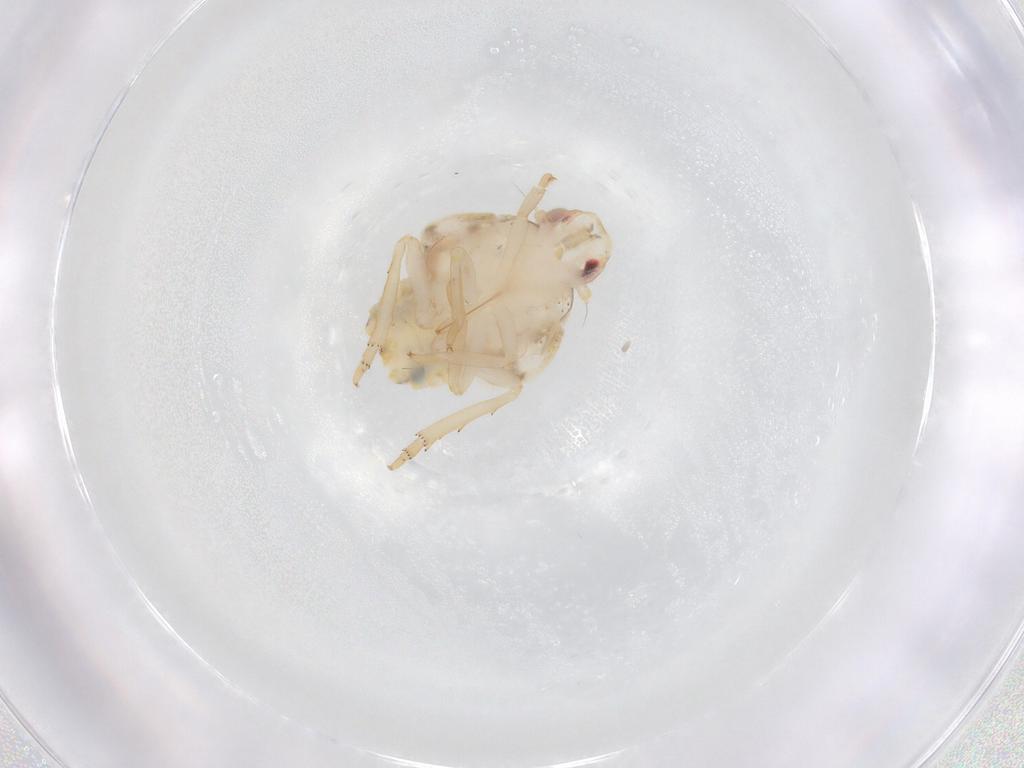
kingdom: Animalia
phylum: Arthropoda
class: Insecta
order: Hemiptera
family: Flatidae
